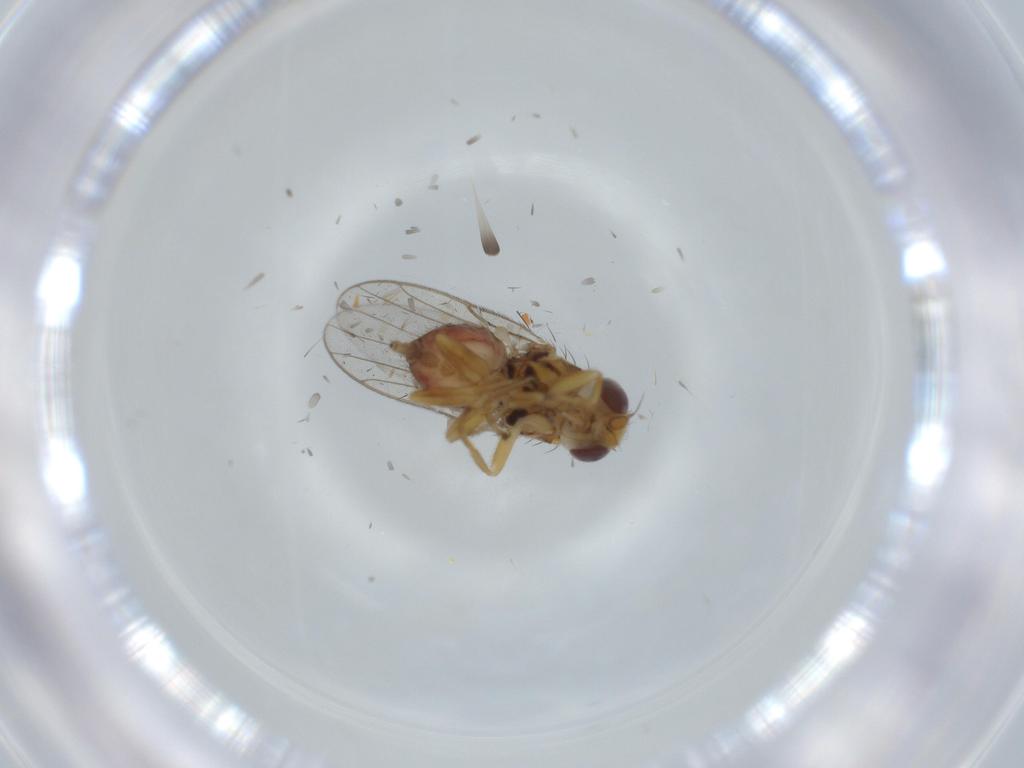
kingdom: Animalia
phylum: Arthropoda
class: Insecta
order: Diptera
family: Chloropidae
